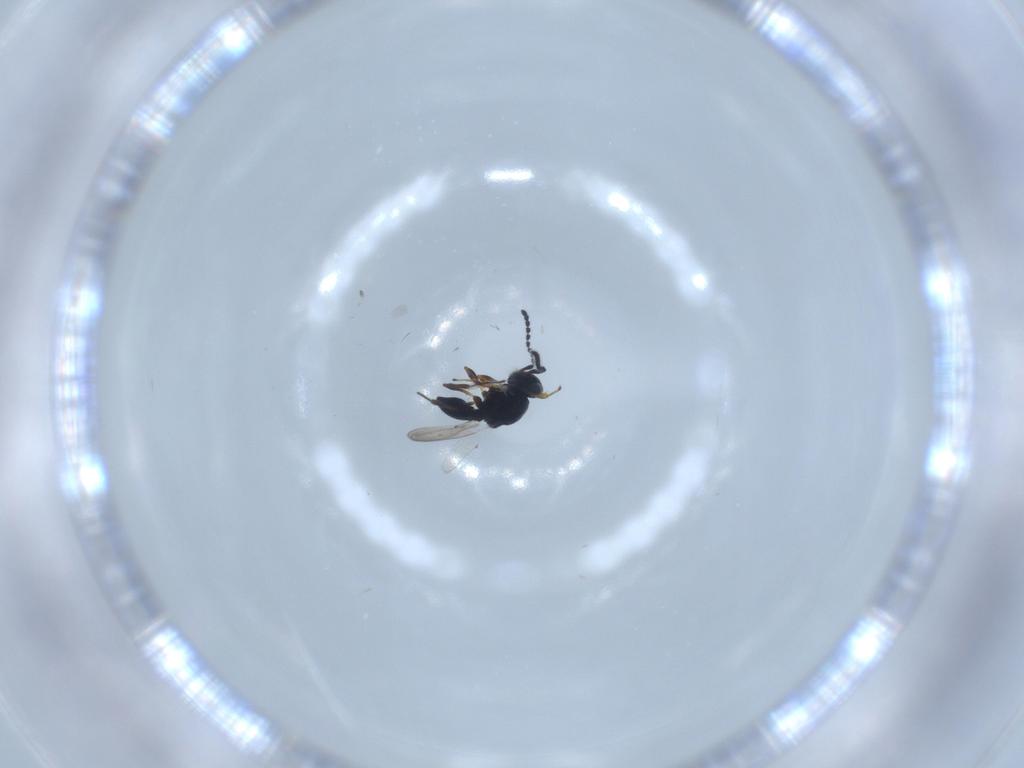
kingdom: Animalia
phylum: Arthropoda
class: Insecta
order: Hymenoptera
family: Platygastridae
